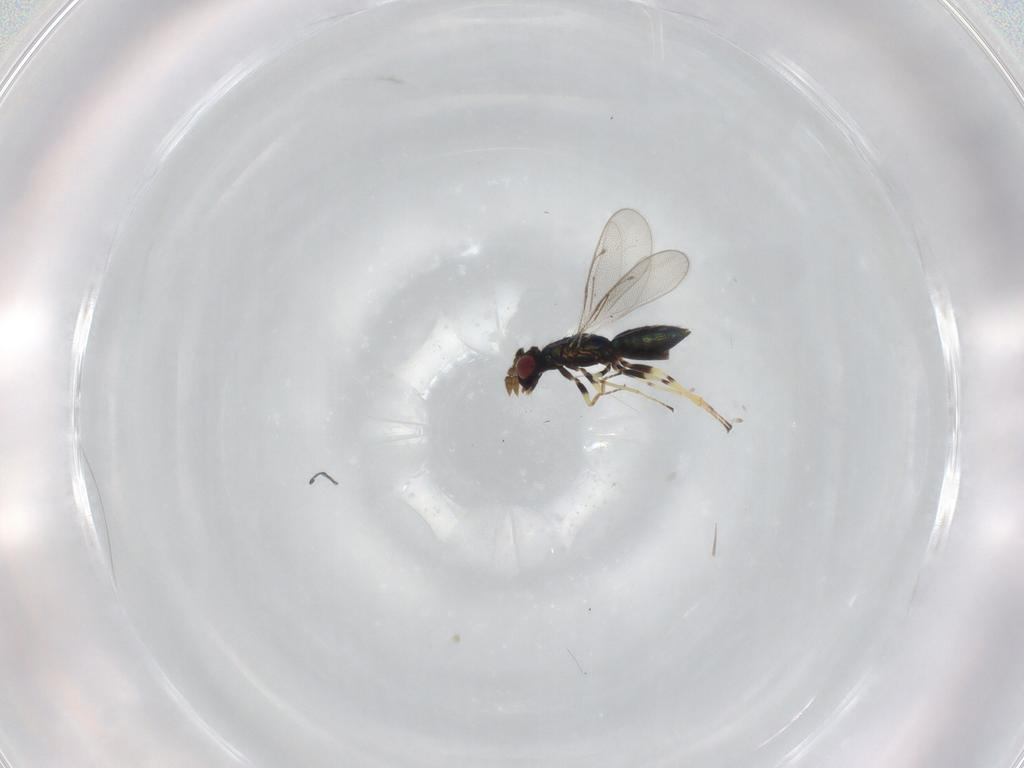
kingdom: Animalia
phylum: Arthropoda
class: Insecta
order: Hymenoptera
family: Eulophidae
